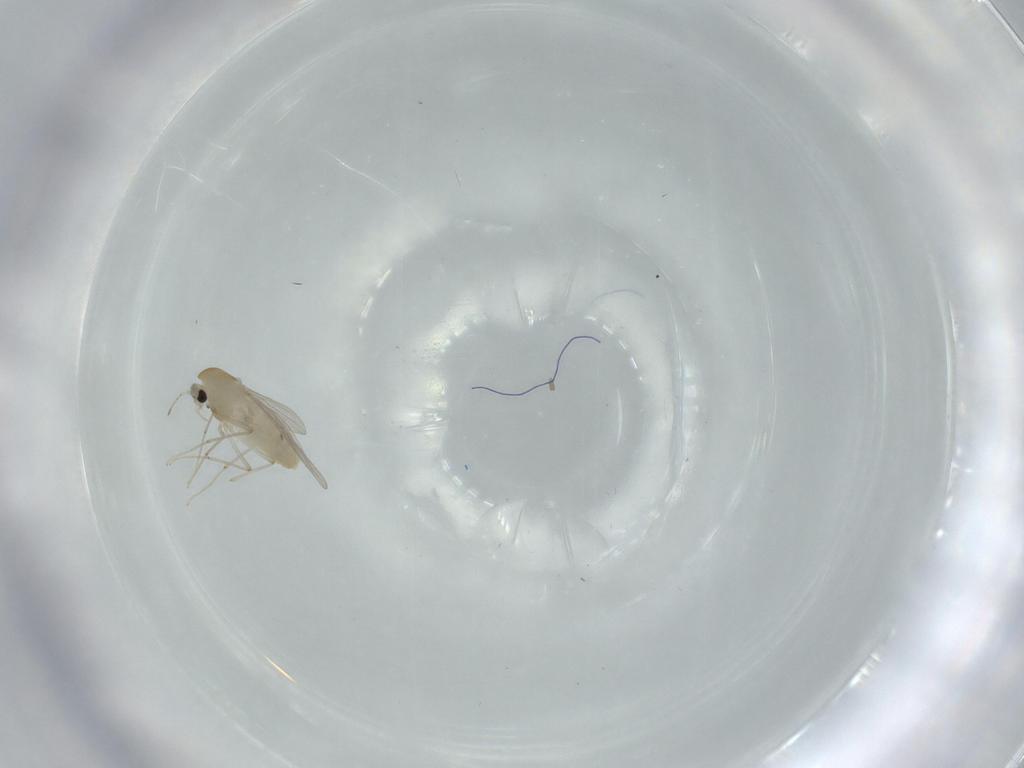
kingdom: Animalia
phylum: Arthropoda
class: Insecta
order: Diptera
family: Chironomidae
